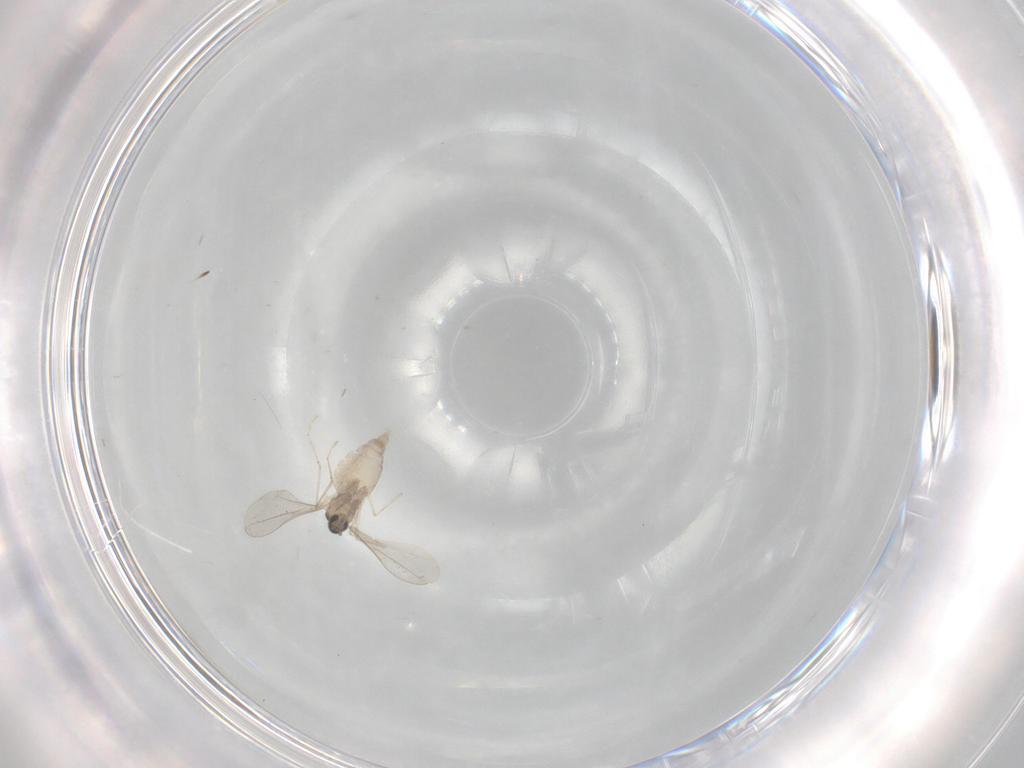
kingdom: Animalia
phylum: Arthropoda
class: Insecta
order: Diptera
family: Cecidomyiidae
